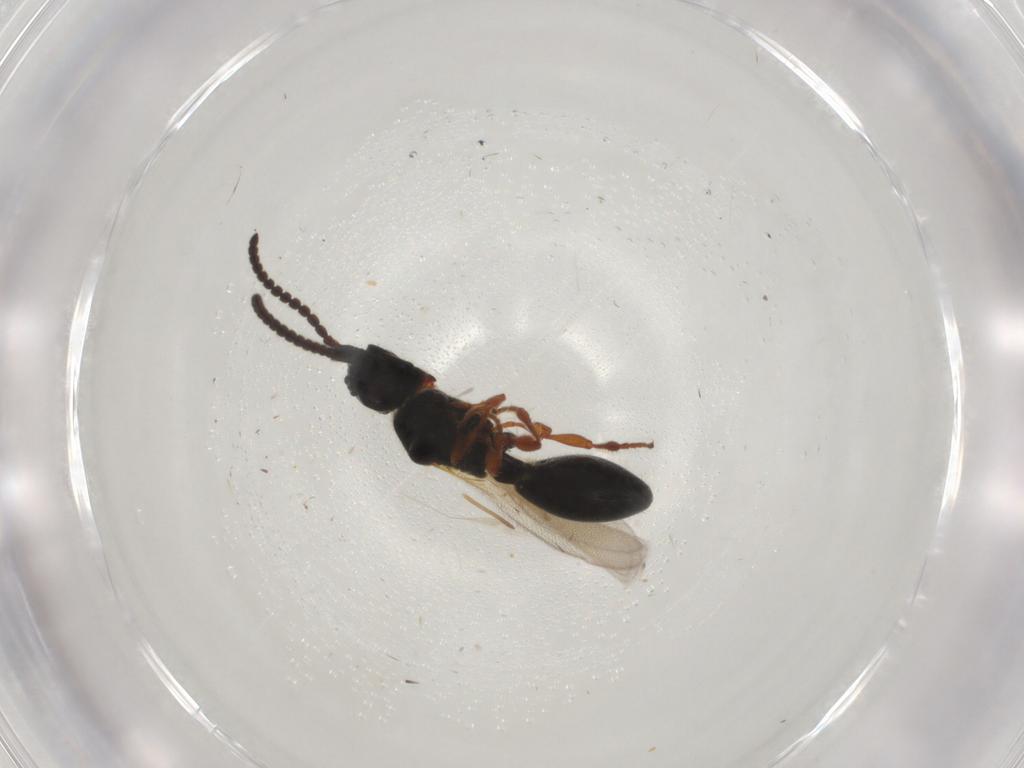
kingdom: Animalia
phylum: Arthropoda
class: Insecta
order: Hymenoptera
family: Diapriidae
